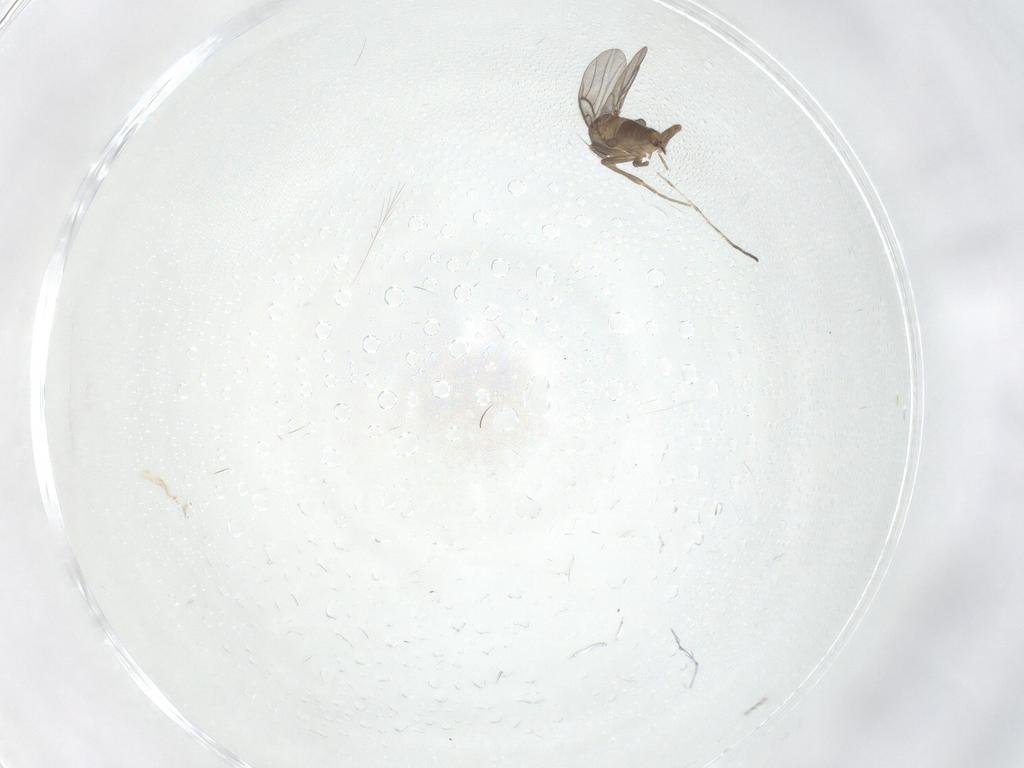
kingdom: Animalia
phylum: Arthropoda
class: Insecta
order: Diptera
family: Cecidomyiidae
